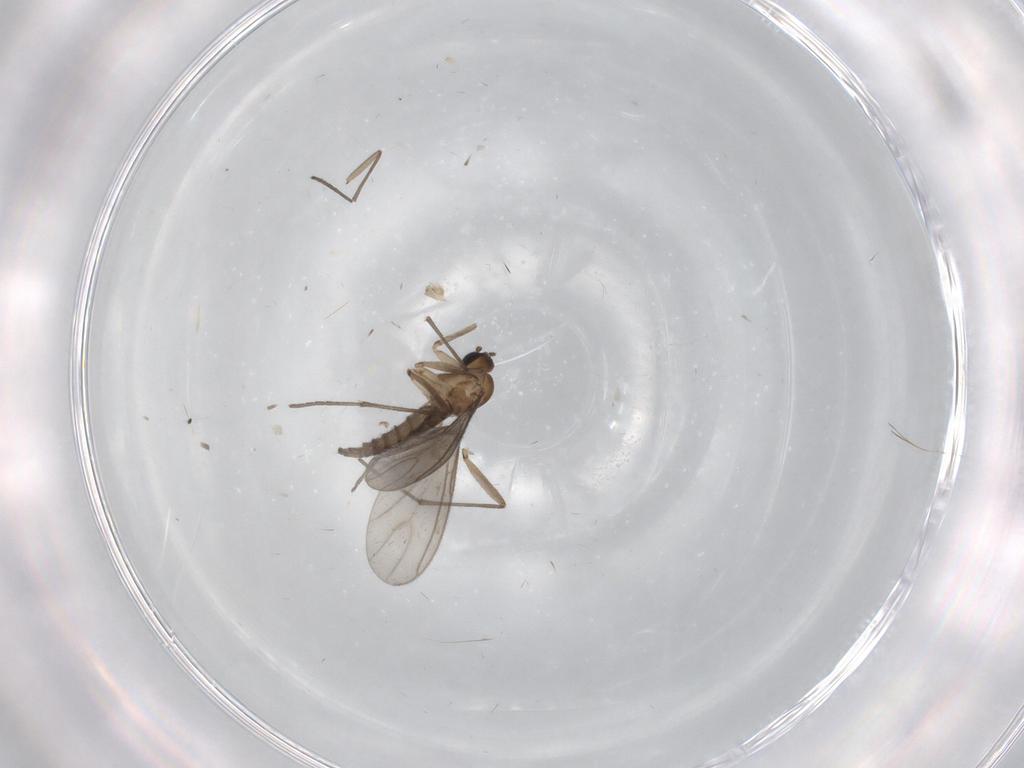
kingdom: Animalia
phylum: Arthropoda
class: Insecta
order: Diptera
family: Sciaridae
